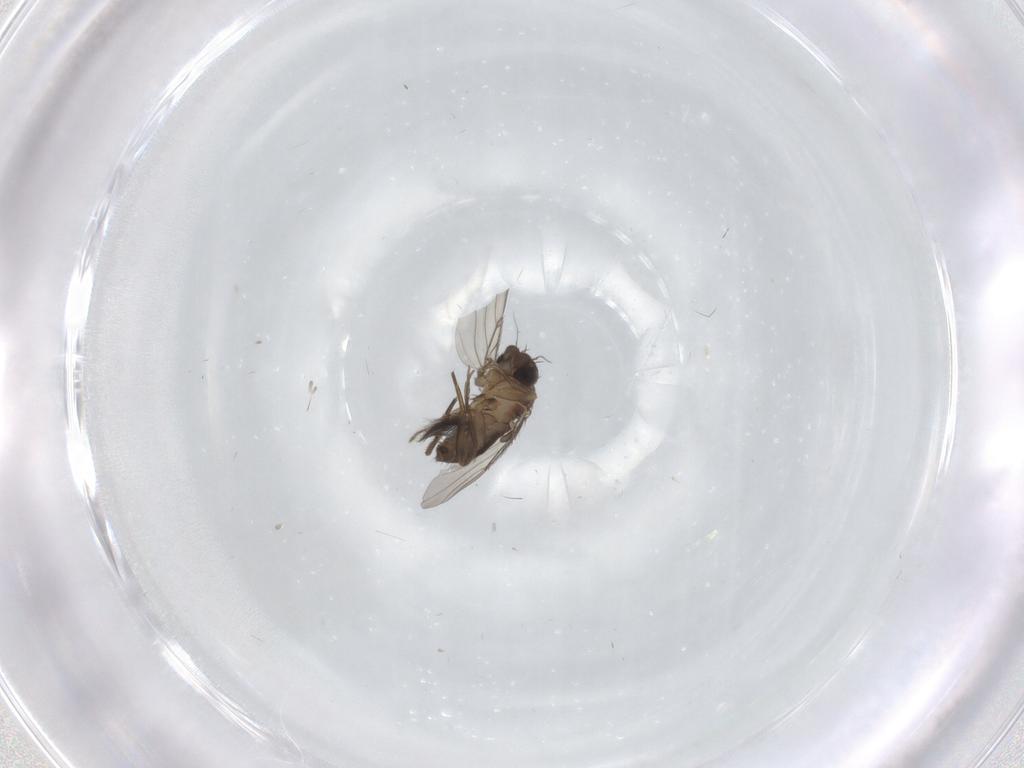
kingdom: Animalia
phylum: Arthropoda
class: Insecta
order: Diptera
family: Phoridae
